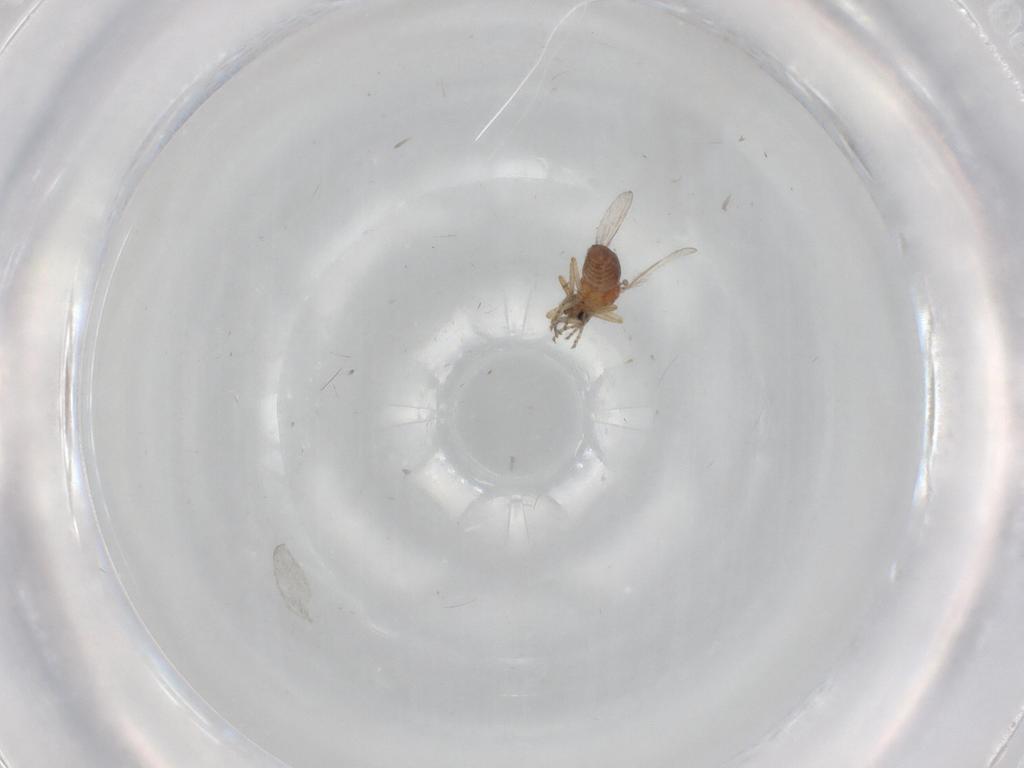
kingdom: Animalia
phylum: Arthropoda
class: Insecta
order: Diptera
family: Ceratopogonidae
